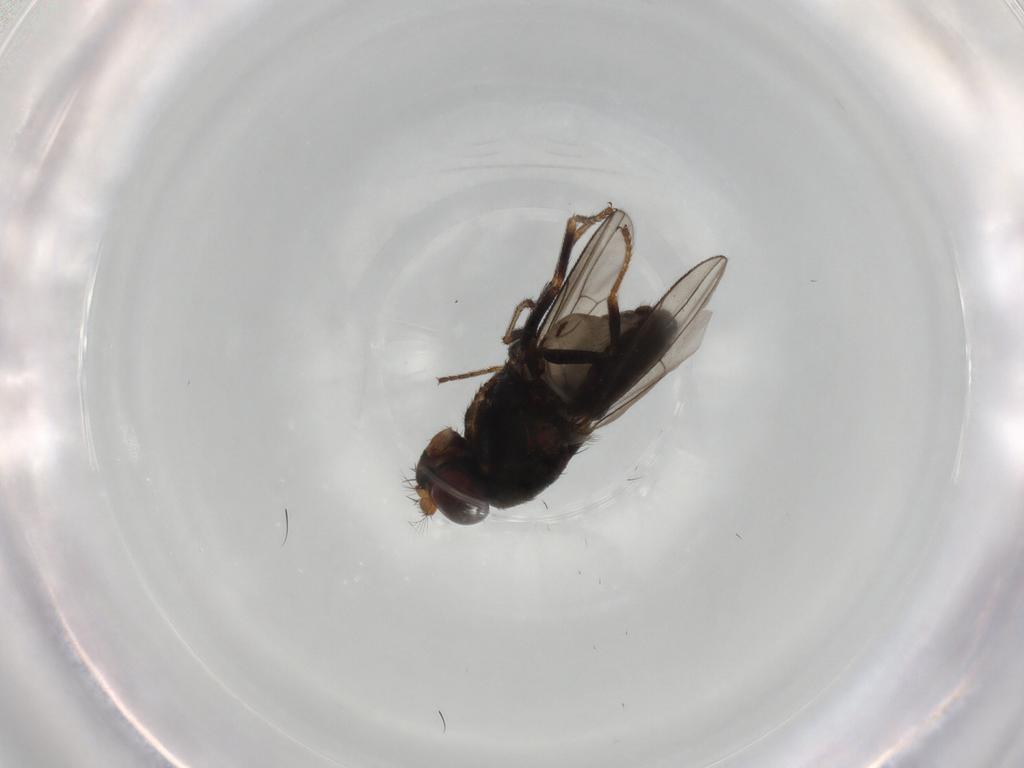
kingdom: Animalia
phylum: Arthropoda
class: Insecta
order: Diptera
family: Ephydridae
